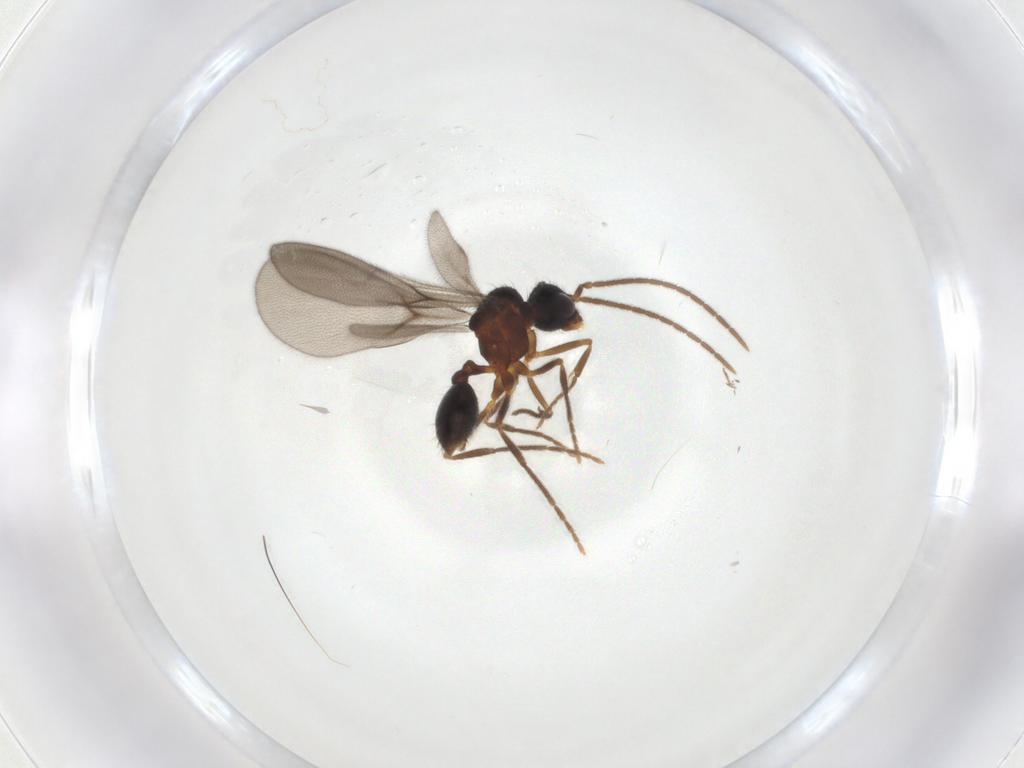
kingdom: Animalia
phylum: Arthropoda
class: Insecta
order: Hymenoptera
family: Formicidae
